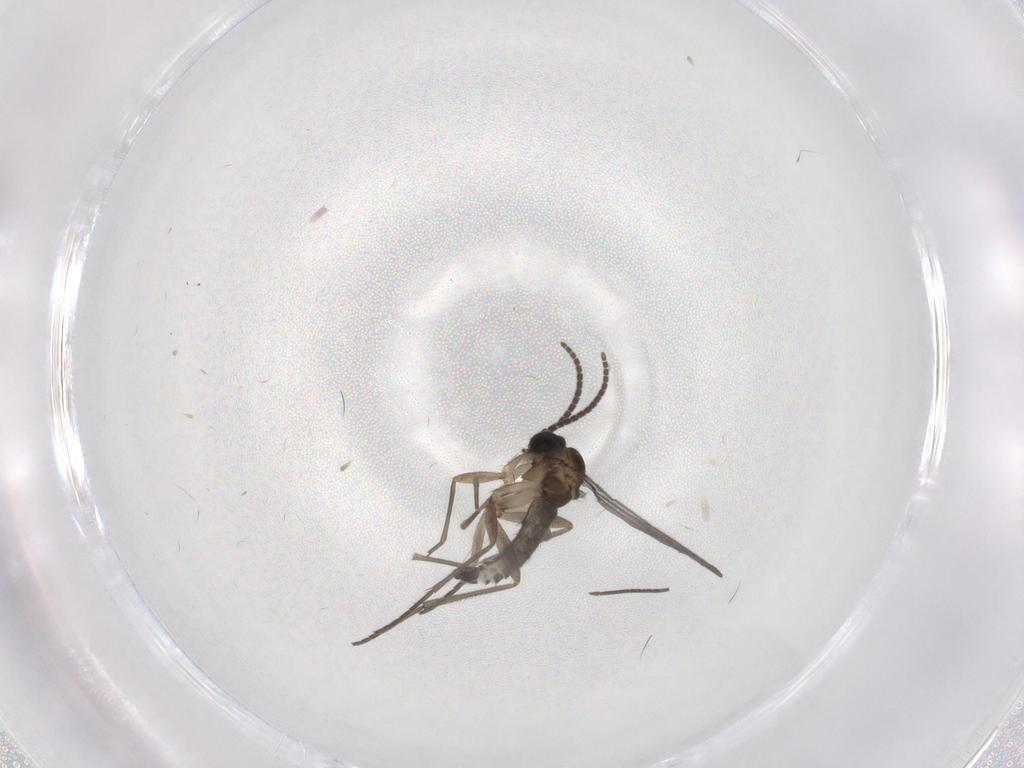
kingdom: Animalia
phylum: Arthropoda
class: Insecta
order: Diptera
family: Sciaridae
